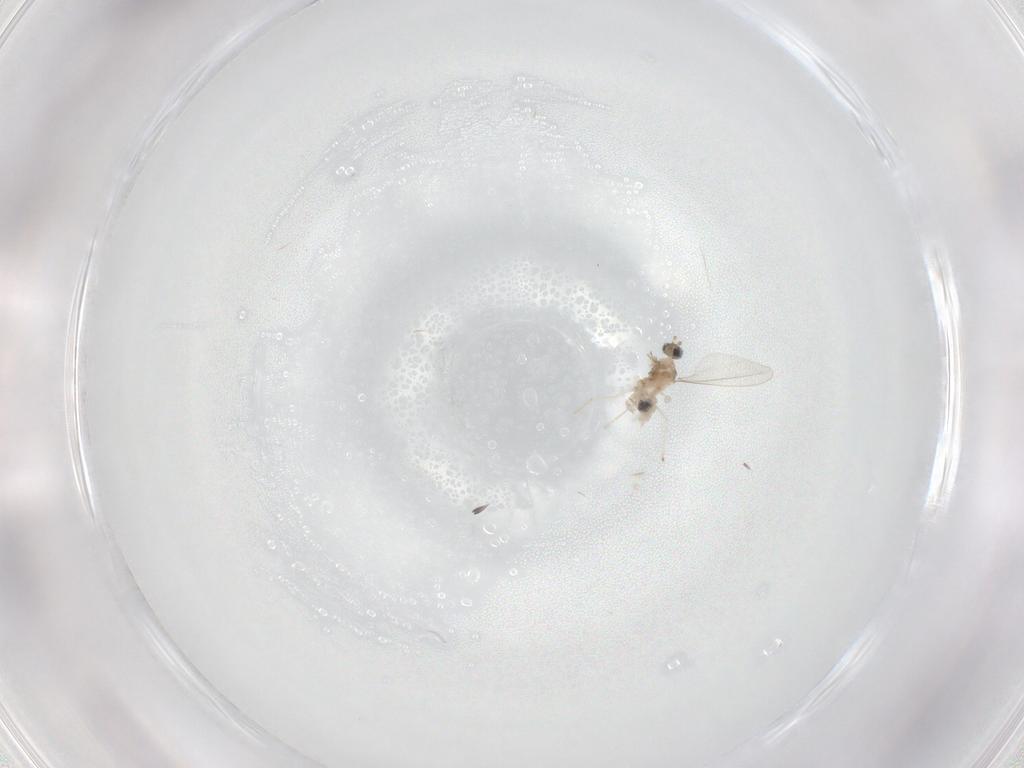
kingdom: Animalia
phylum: Arthropoda
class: Insecta
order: Diptera
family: Cecidomyiidae
